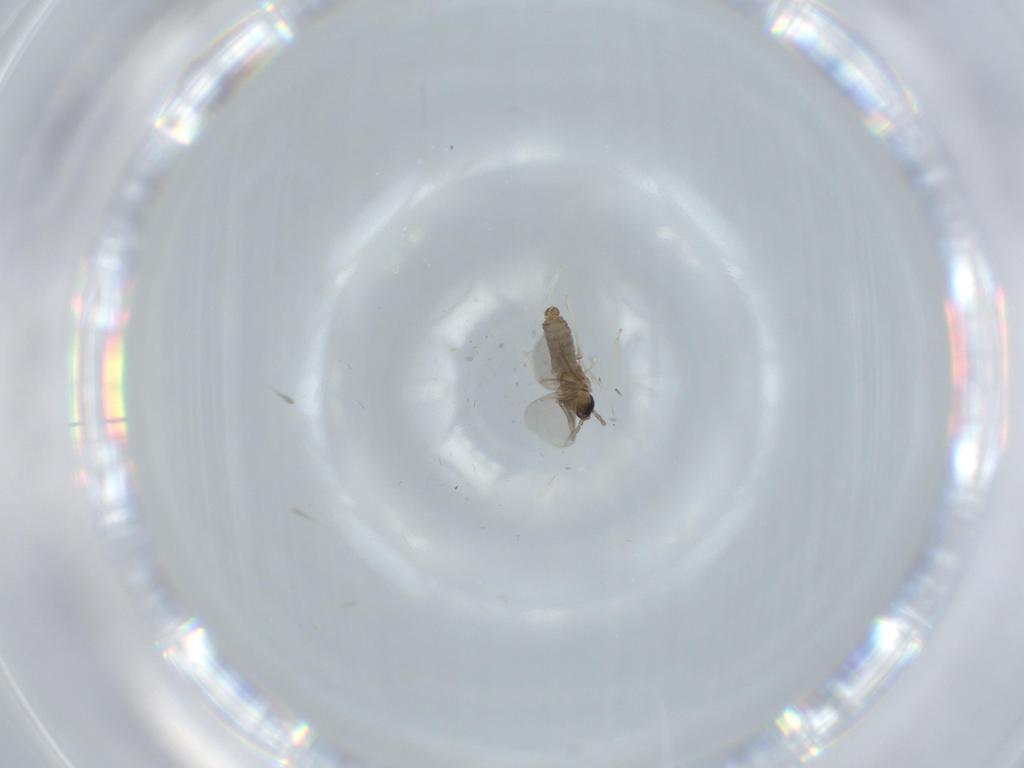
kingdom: Animalia
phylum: Arthropoda
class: Insecta
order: Diptera
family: Cecidomyiidae
